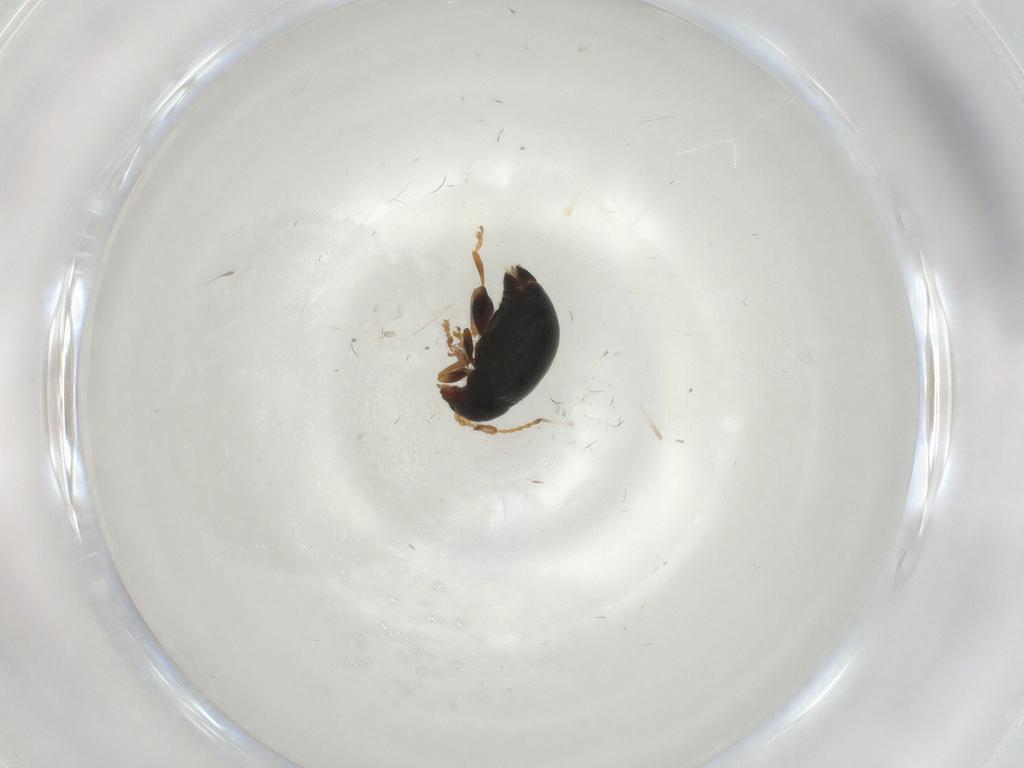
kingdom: Animalia
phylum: Arthropoda
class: Insecta
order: Coleoptera
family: Chrysomelidae
